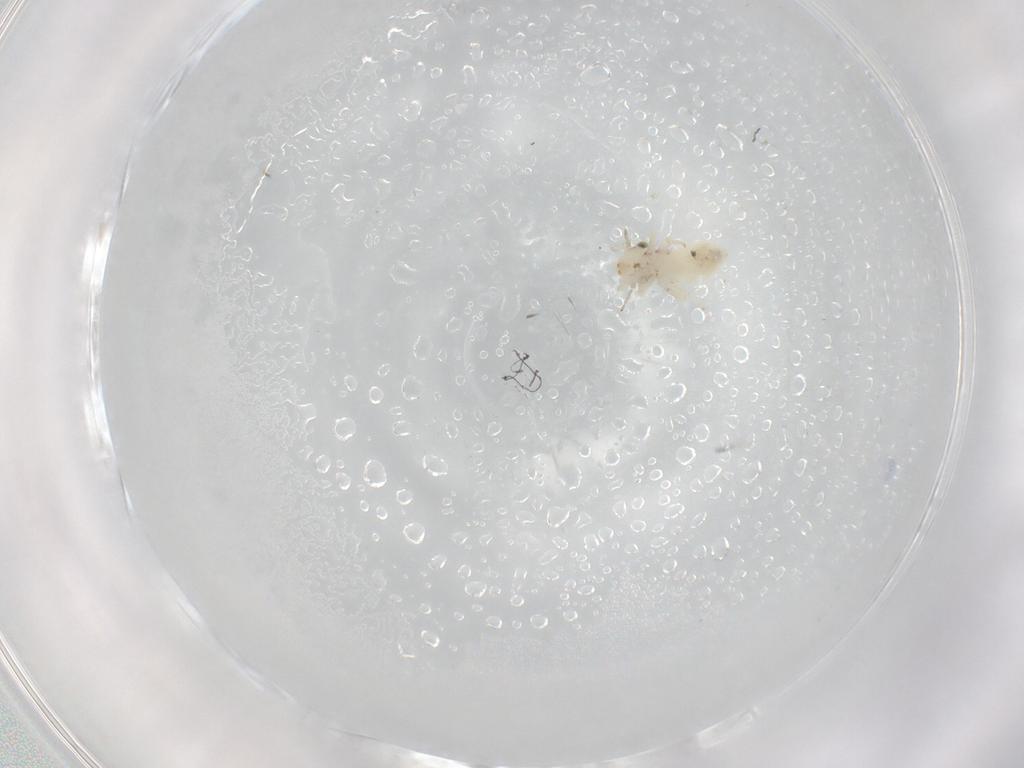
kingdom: Animalia
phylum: Arthropoda
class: Insecta
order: Psocodea
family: Lepidopsocidae
